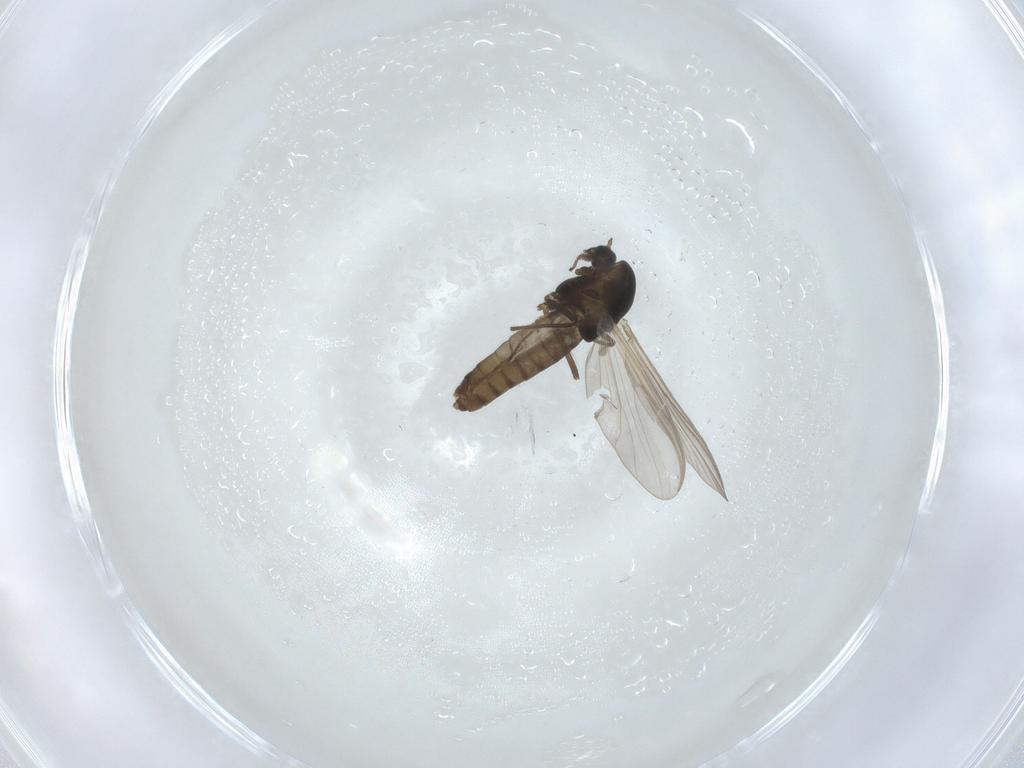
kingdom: Animalia
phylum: Arthropoda
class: Insecta
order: Diptera
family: Chironomidae
